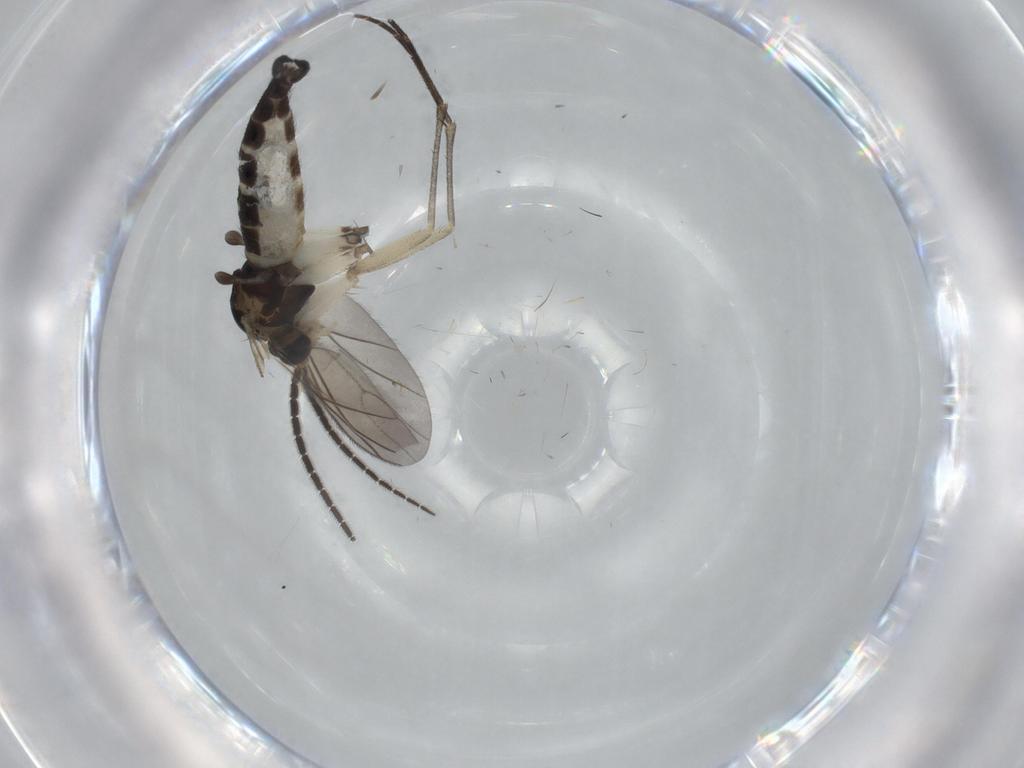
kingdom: Animalia
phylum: Arthropoda
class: Insecta
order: Diptera
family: Sciaridae
